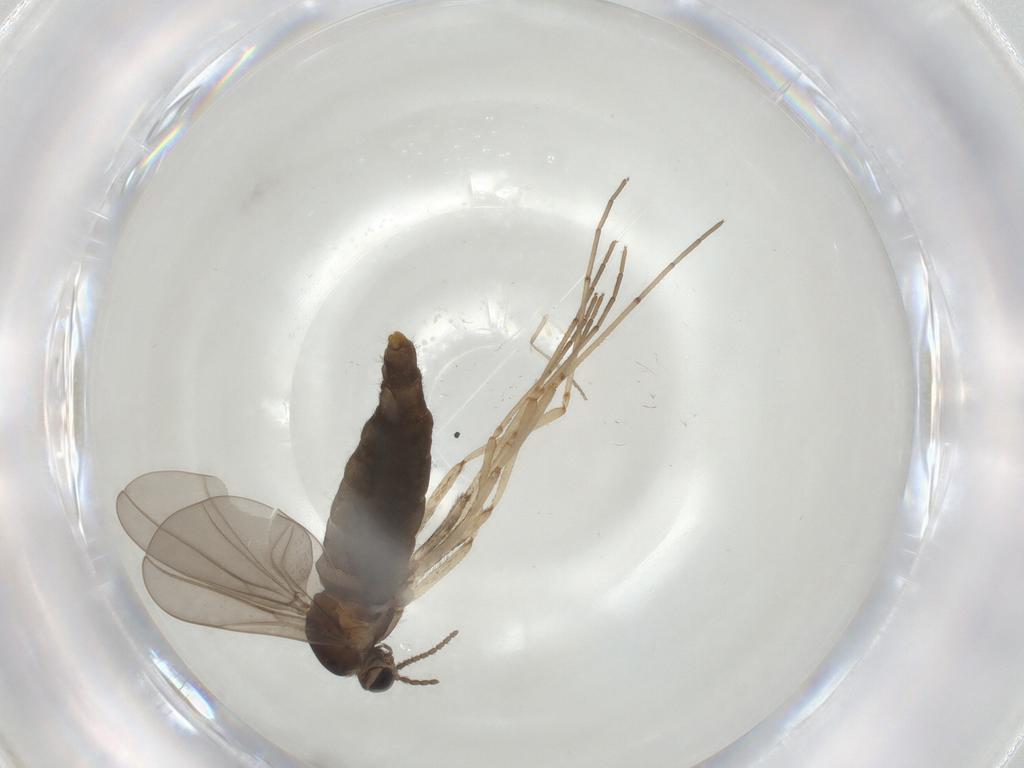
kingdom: Animalia
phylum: Arthropoda
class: Insecta
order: Diptera
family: Cecidomyiidae
